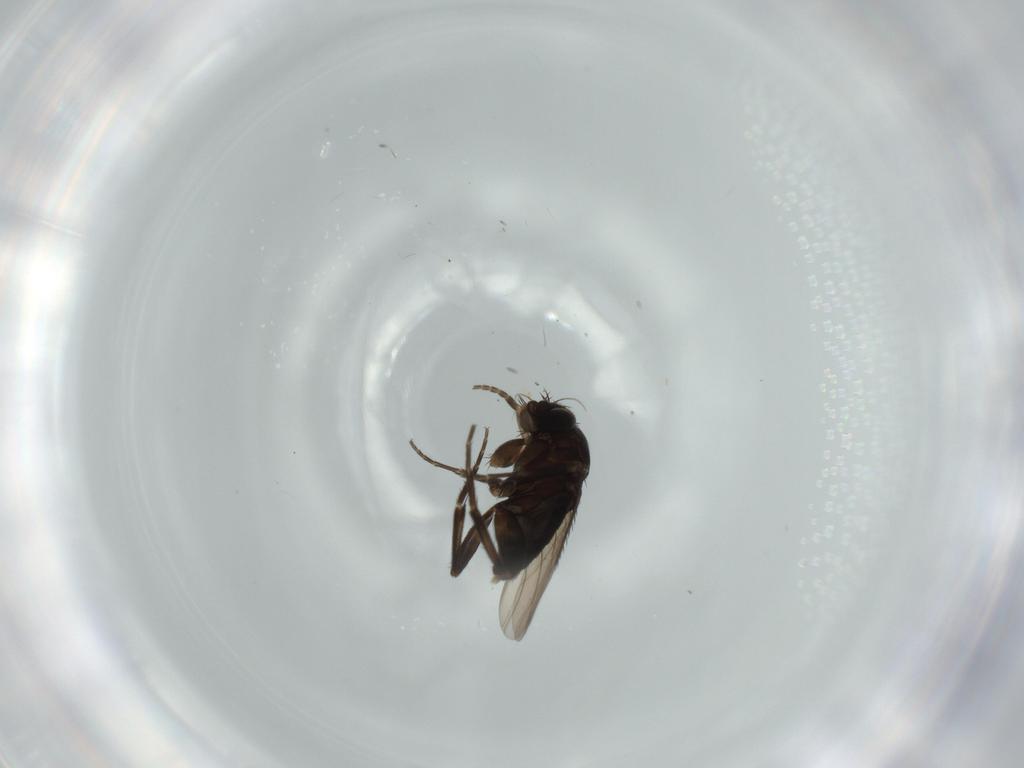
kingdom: Animalia
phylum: Arthropoda
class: Insecta
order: Diptera
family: Phoridae
